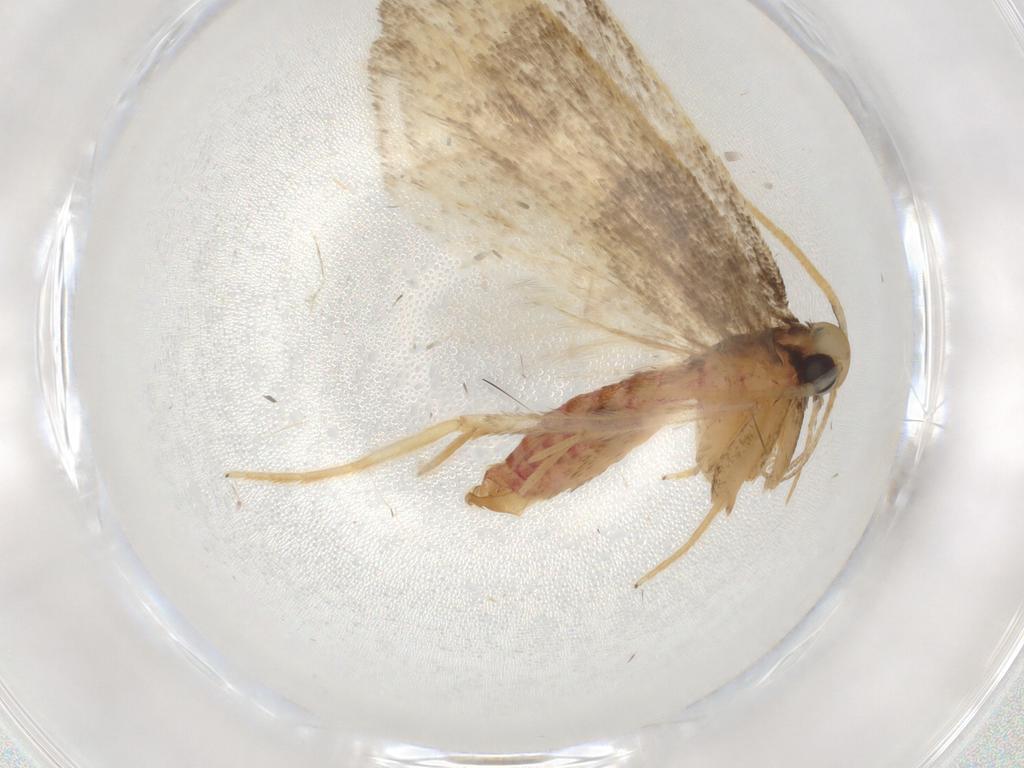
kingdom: Animalia
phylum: Arthropoda
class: Insecta
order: Lepidoptera
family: Lecithoceridae
